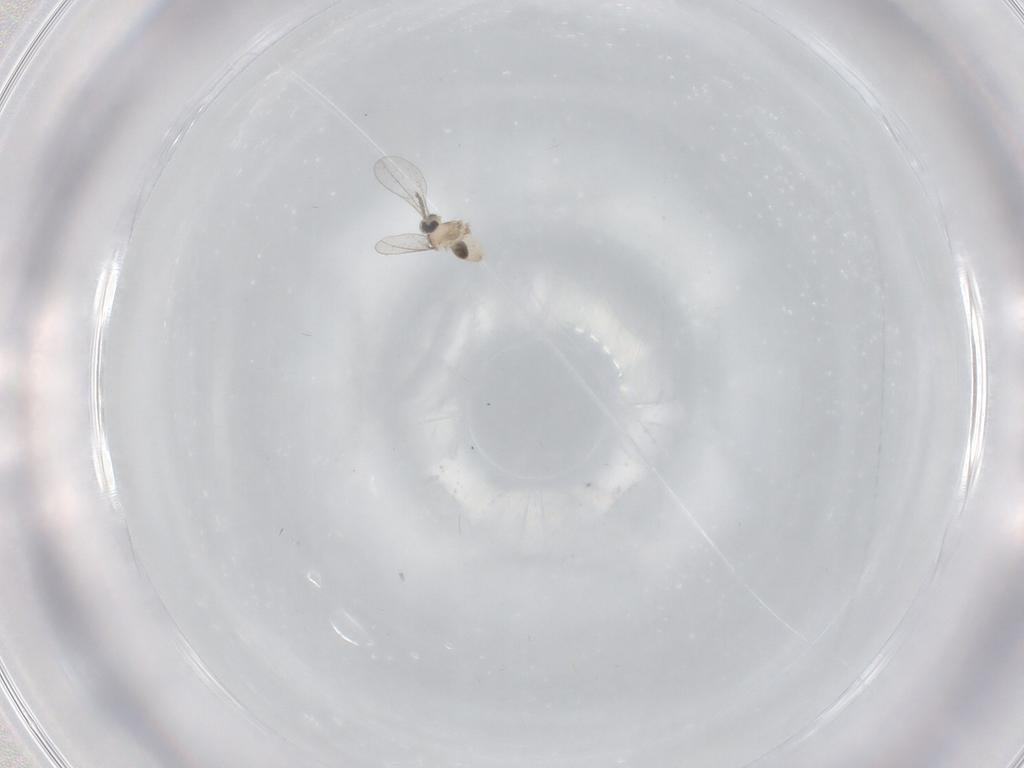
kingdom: Animalia
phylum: Arthropoda
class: Insecta
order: Diptera
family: Cecidomyiidae
